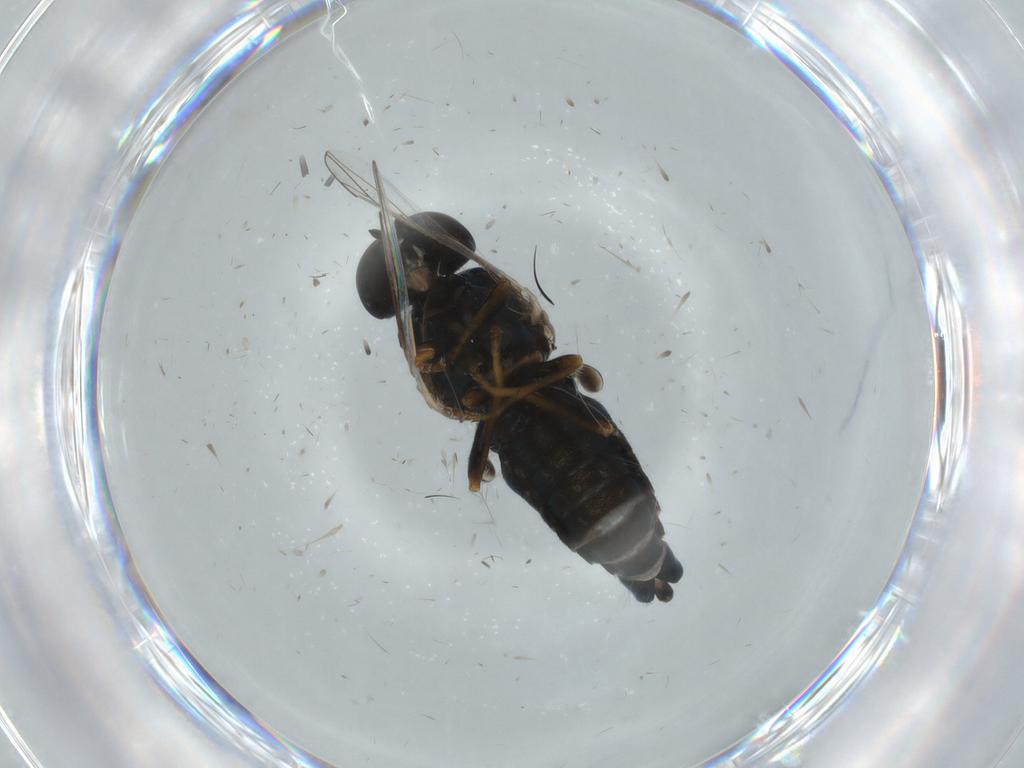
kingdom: Animalia
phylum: Arthropoda
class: Insecta
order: Diptera
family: Scenopinidae
